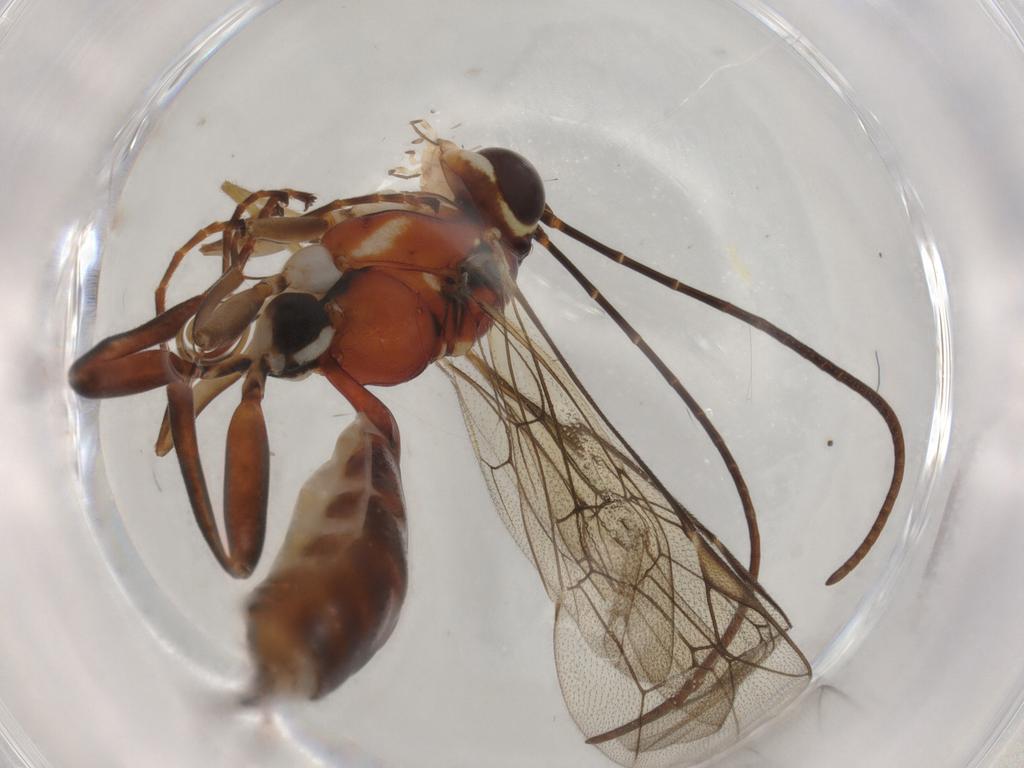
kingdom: Animalia
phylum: Arthropoda
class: Insecta
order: Hymenoptera
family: Ichneumonidae
